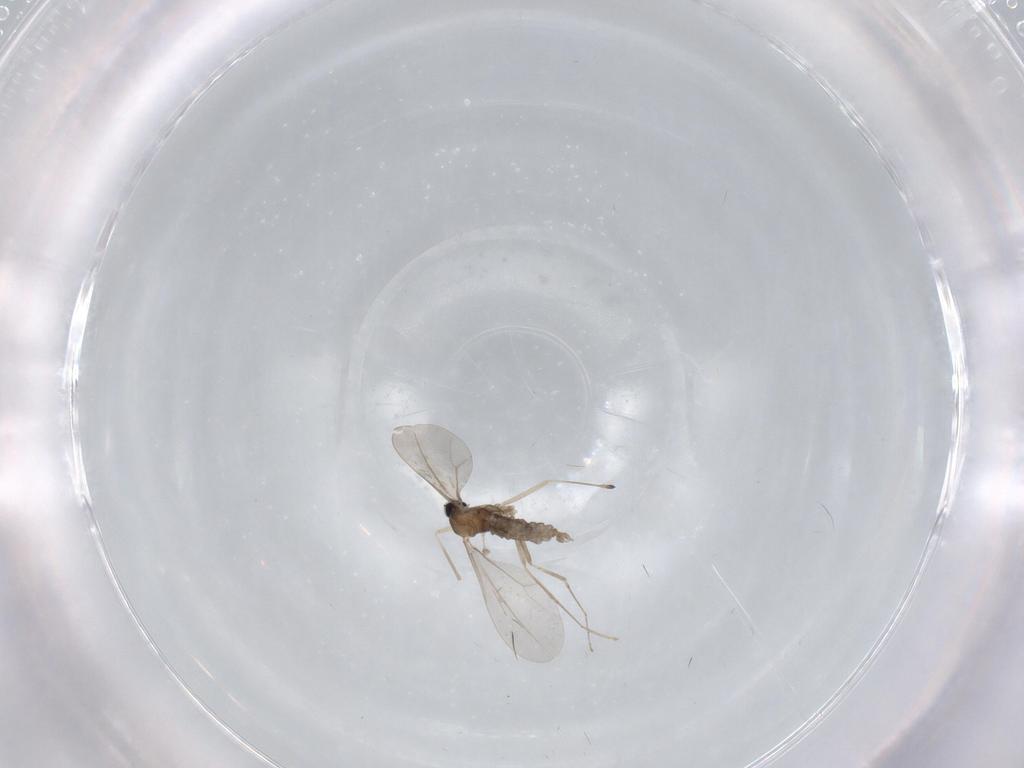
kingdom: Animalia
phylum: Arthropoda
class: Insecta
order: Diptera
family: Cecidomyiidae
